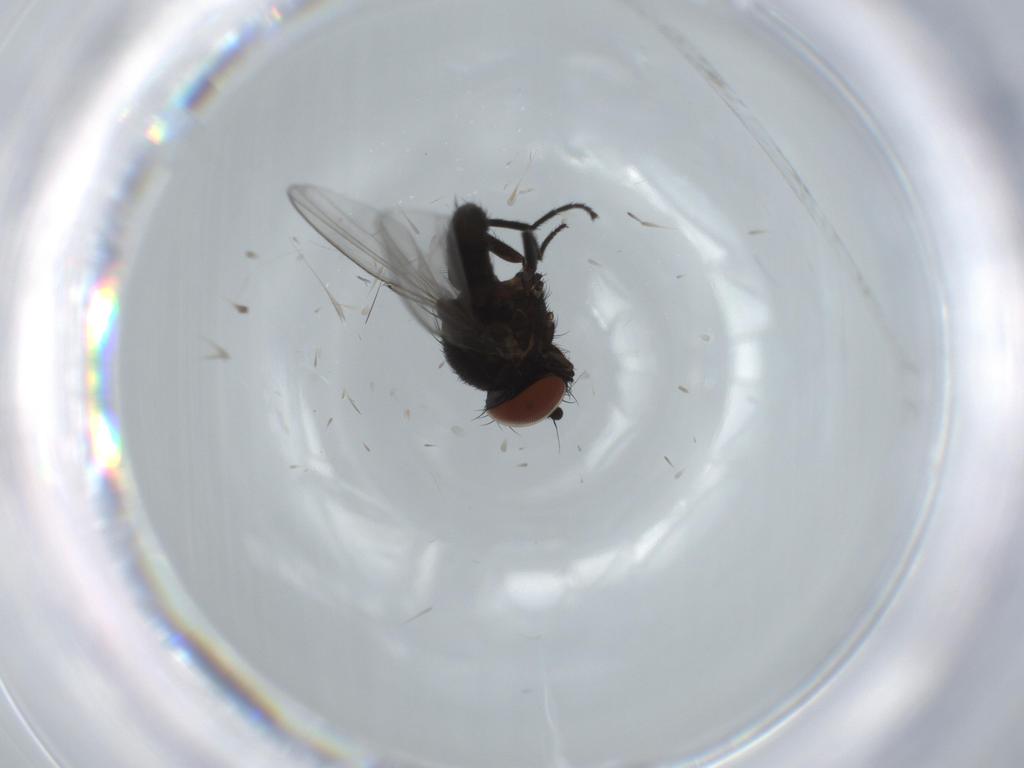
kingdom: Animalia
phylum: Arthropoda
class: Insecta
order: Diptera
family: Milichiidae
